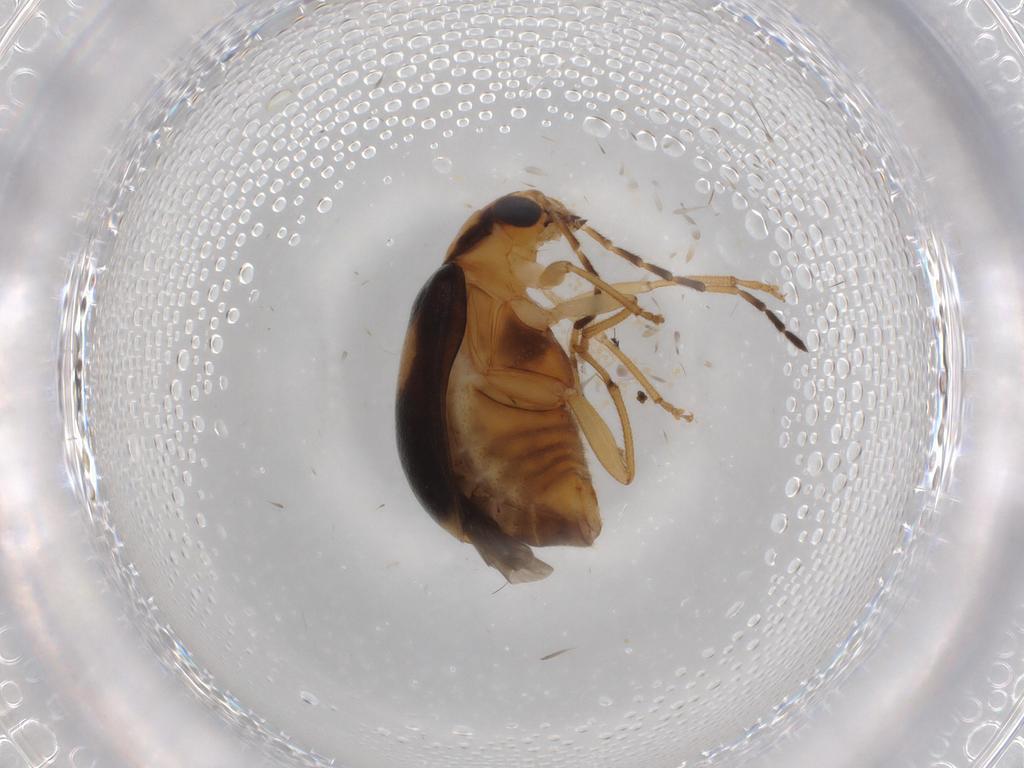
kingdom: Animalia
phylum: Arthropoda
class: Insecta
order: Coleoptera
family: Chrysomelidae
